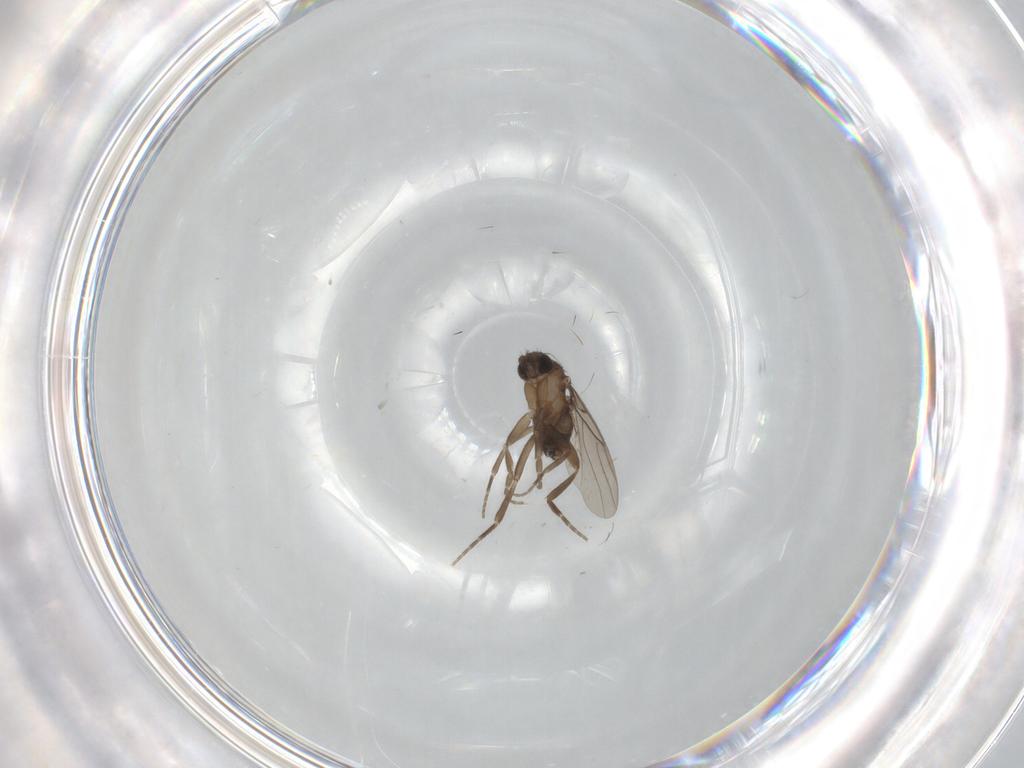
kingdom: Animalia
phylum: Arthropoda
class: Insecta
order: Diptera
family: Cecidomyiidae
